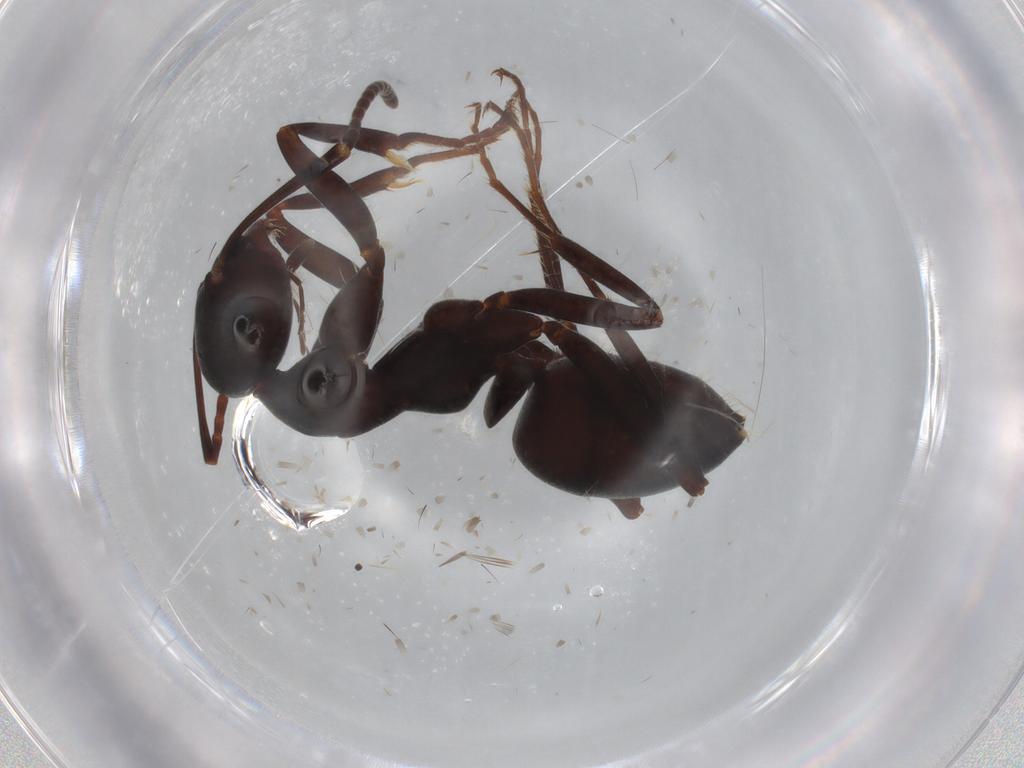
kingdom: Animalia
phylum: Arthropoda
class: Insecta
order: Hymenoptera
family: Formicidae
